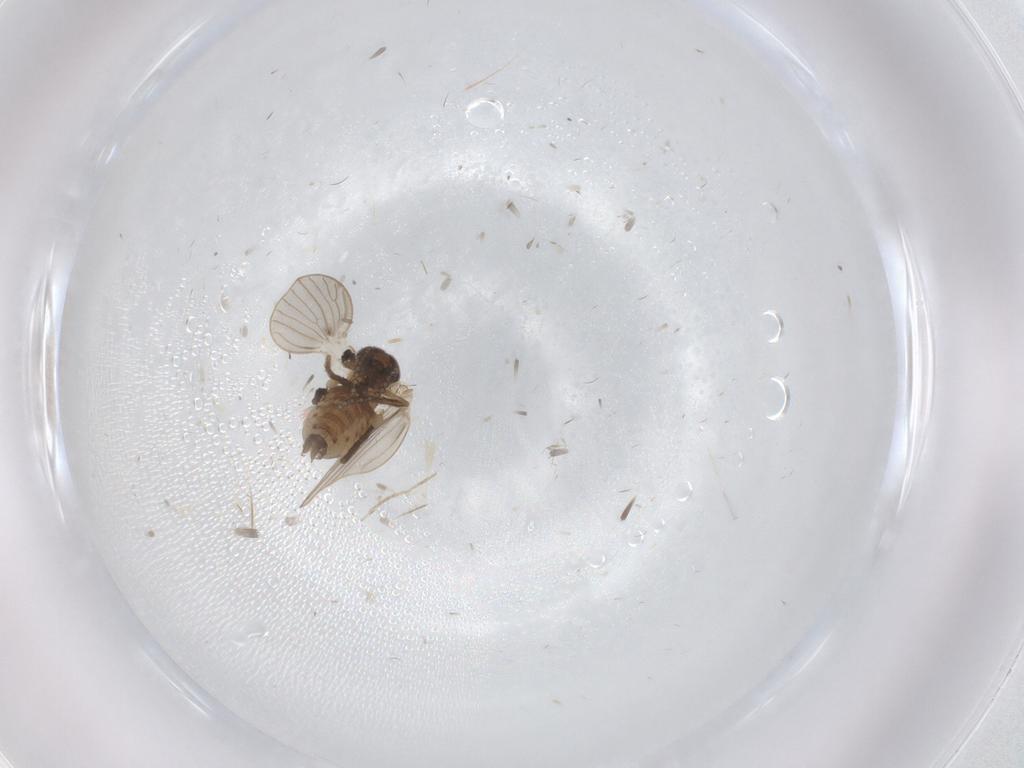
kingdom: Animalia
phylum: Arthropoda
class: Insecta
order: Diptera
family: Cecidomyiidae
